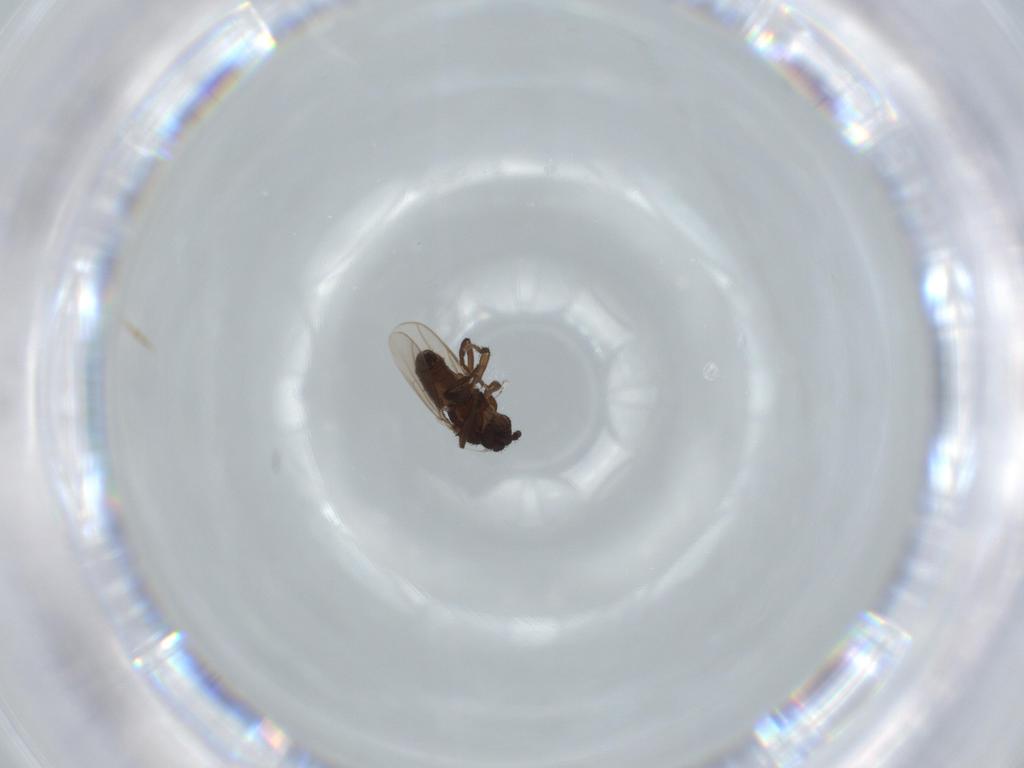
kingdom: Animalia
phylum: Arthropoda
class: Insecta
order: Diptera
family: Sphaeroceridae
